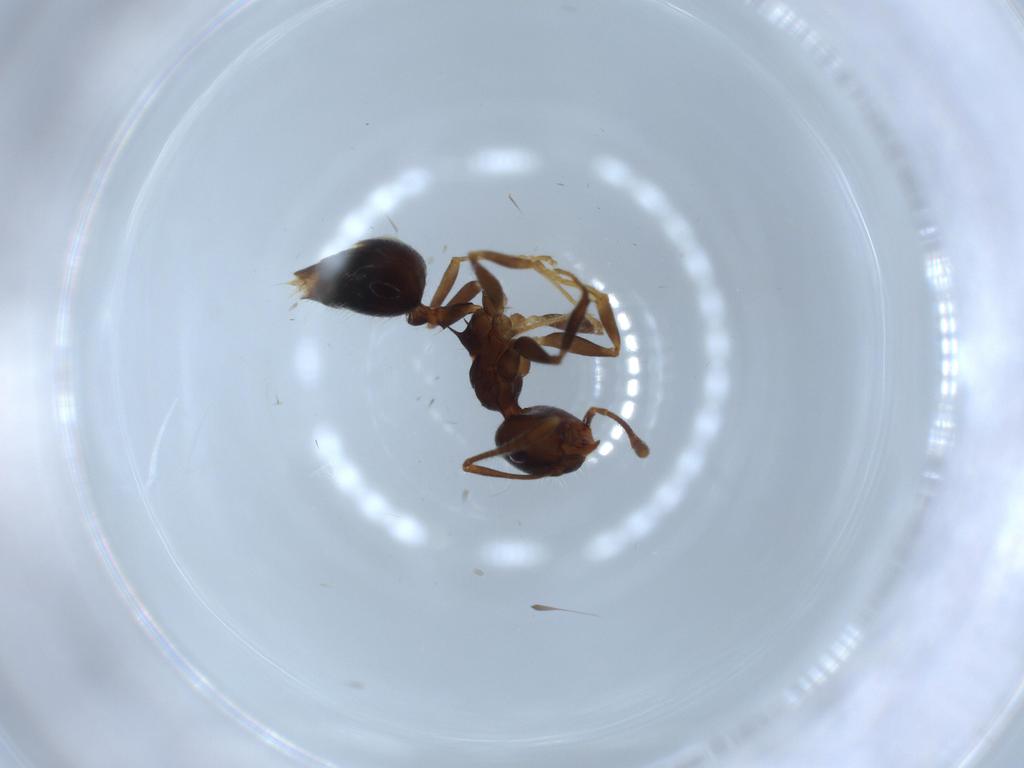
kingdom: Animalia
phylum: Arthropoda
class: Insecta
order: Hymenoptera
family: Formicidae
